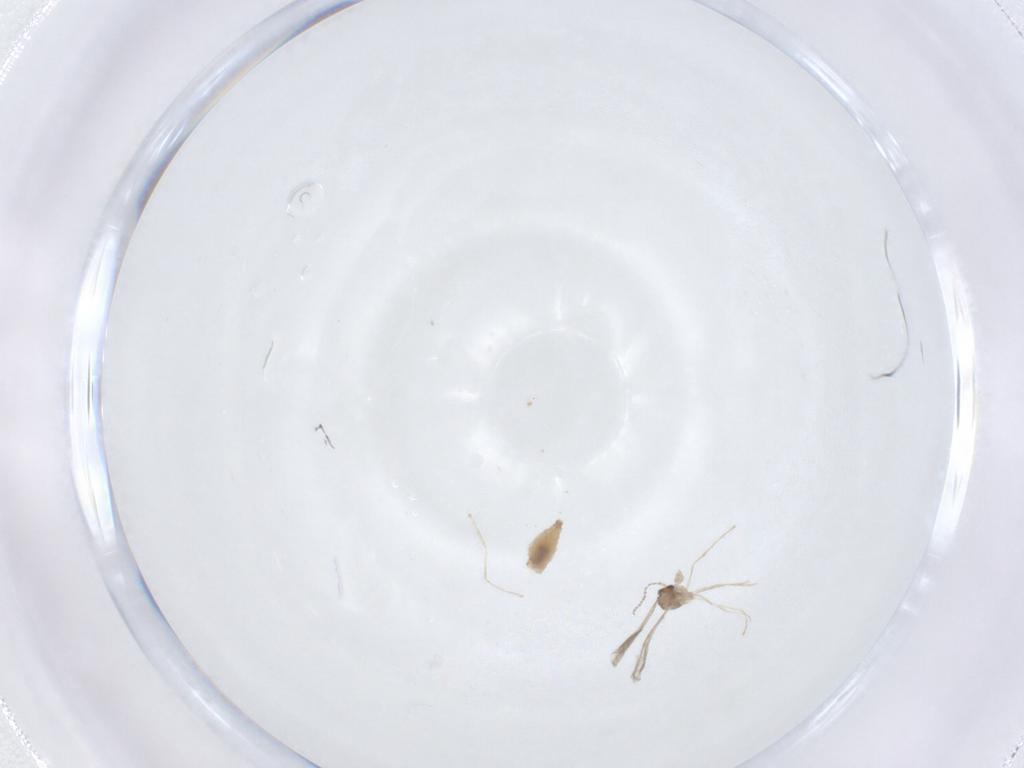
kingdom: Animalia
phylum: Arthropoda
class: Insecta
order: Diptera
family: Cecidomyiidae
